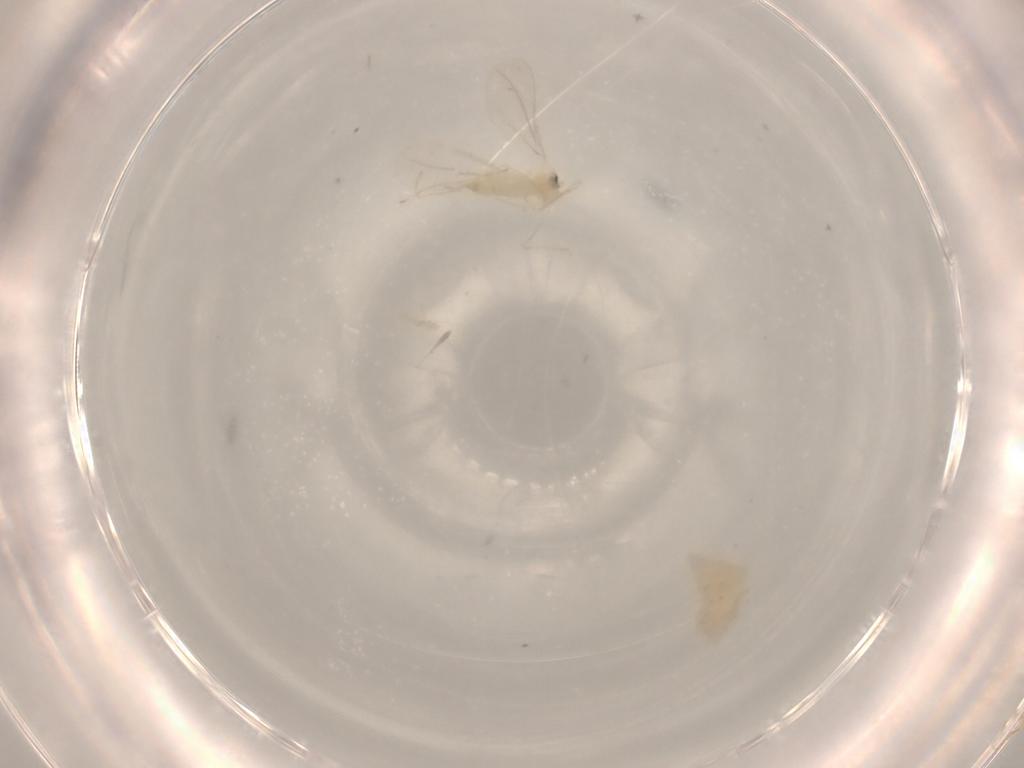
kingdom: Animalia
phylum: Arthropoda
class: Insecta
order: Diptera
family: Cecidomyiidae
